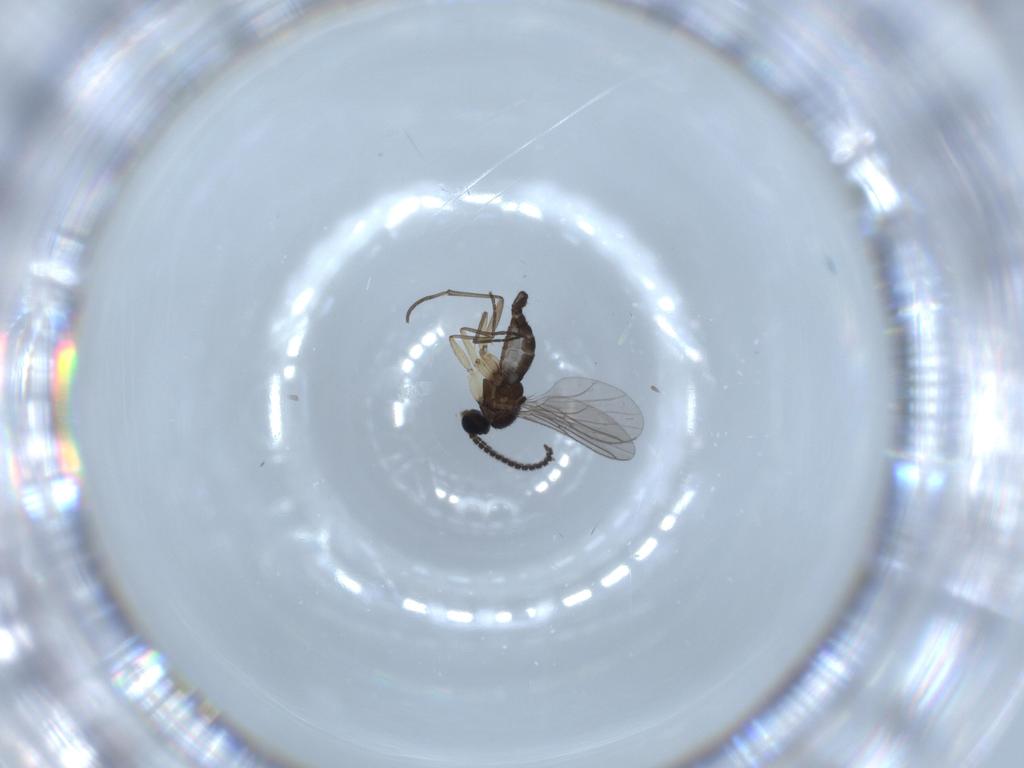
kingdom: Animalia
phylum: Arthropoda
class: Insecta
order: Diptera
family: Sciaridae
